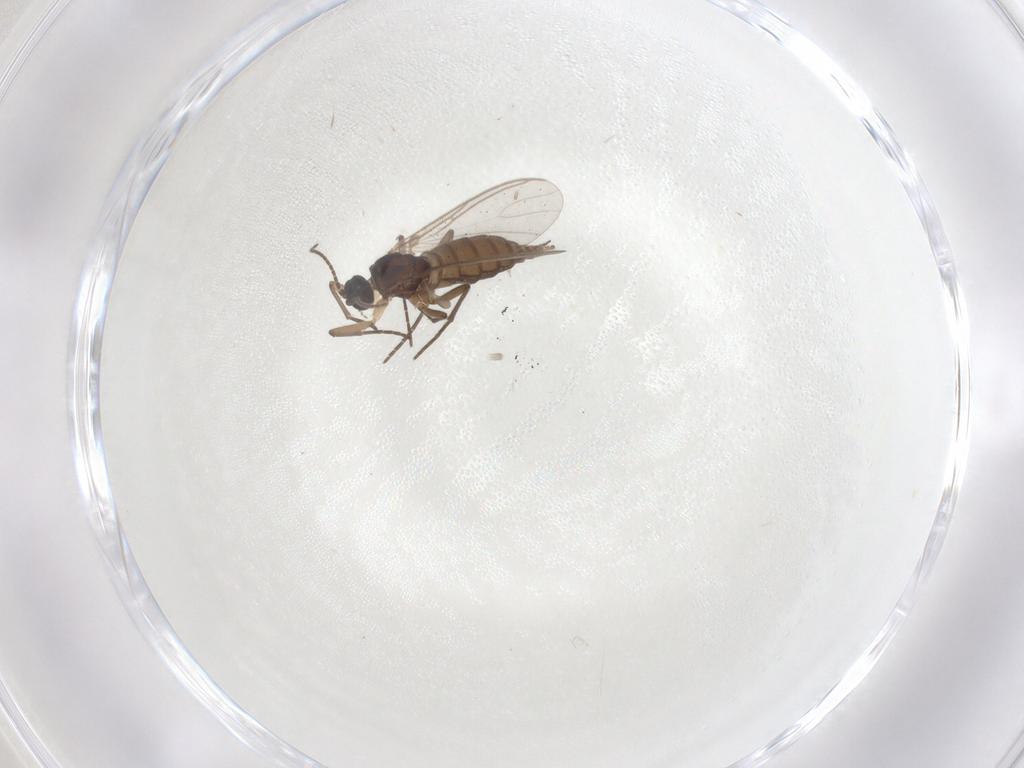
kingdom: Animalia
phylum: Arthropoda
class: Insecta
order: Diptera
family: Sciaridae
